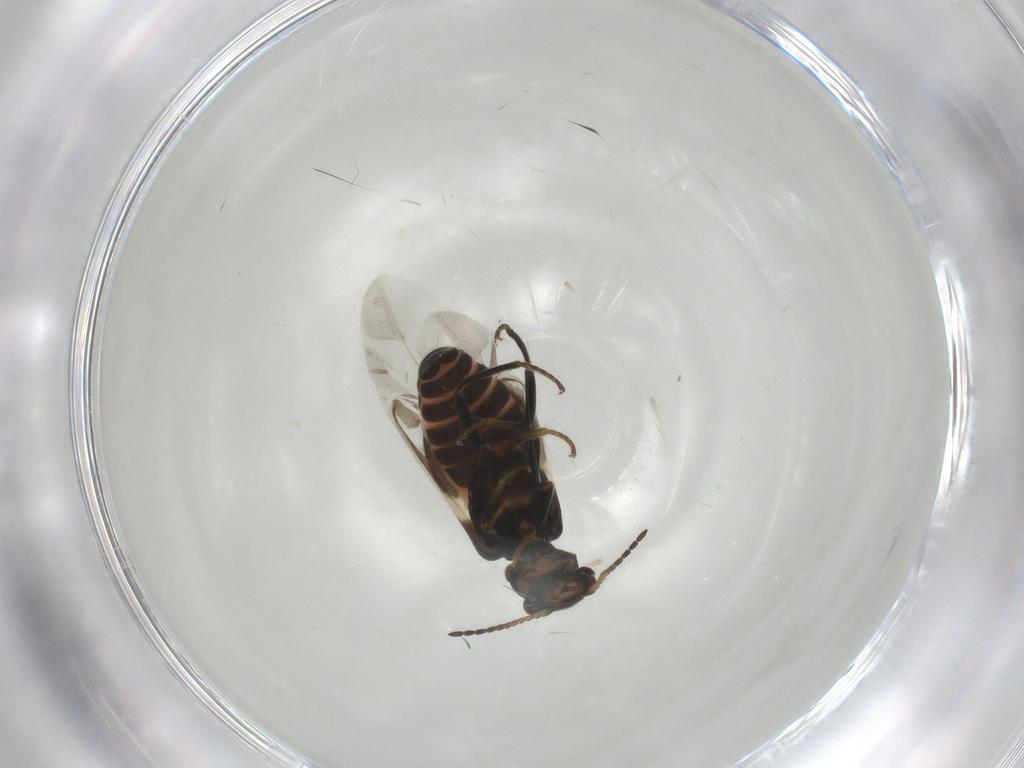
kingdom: Animalia
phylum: Arthropoda
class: Insecta
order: Coleoptera
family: Melyridae
